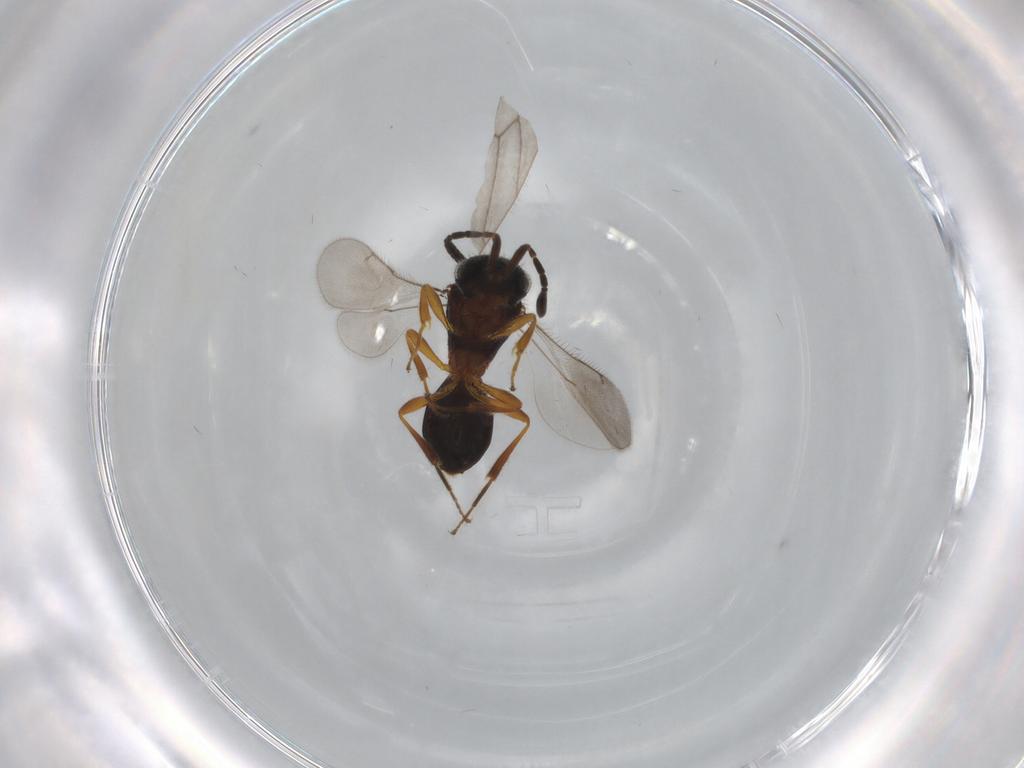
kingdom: Animalia
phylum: Arthropoda
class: Insecta
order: Hymenoptera
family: Scelionidae
